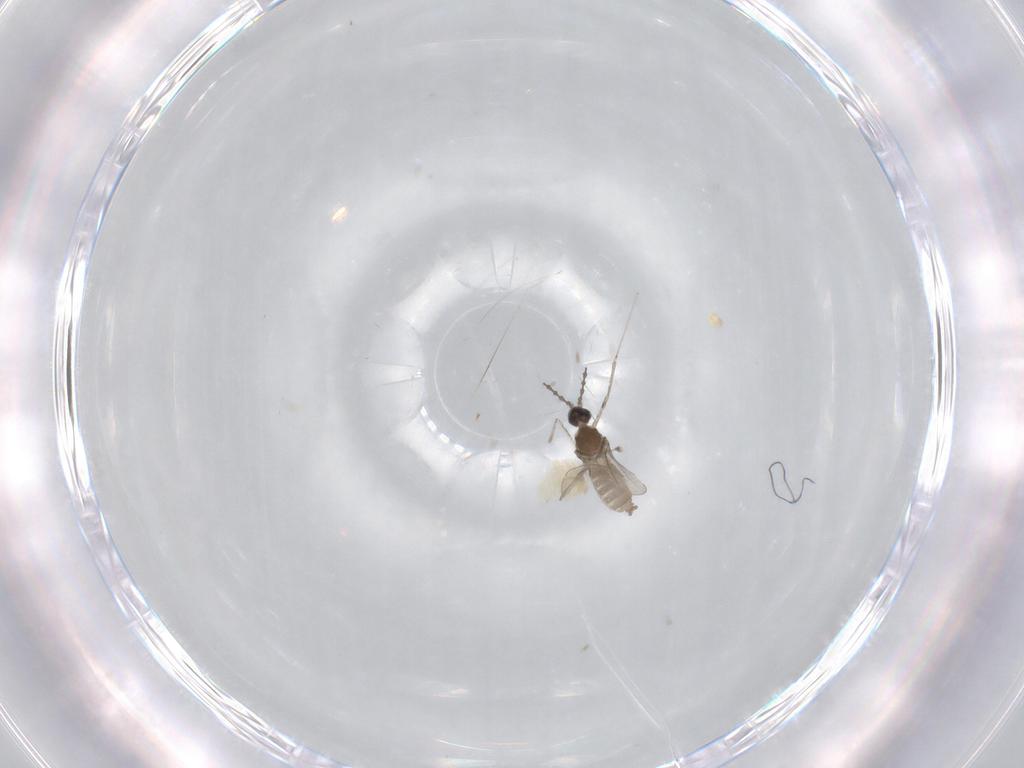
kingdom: Animalia
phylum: Arthropoda
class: Insecta
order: Diptera
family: Cecidomyiidae
